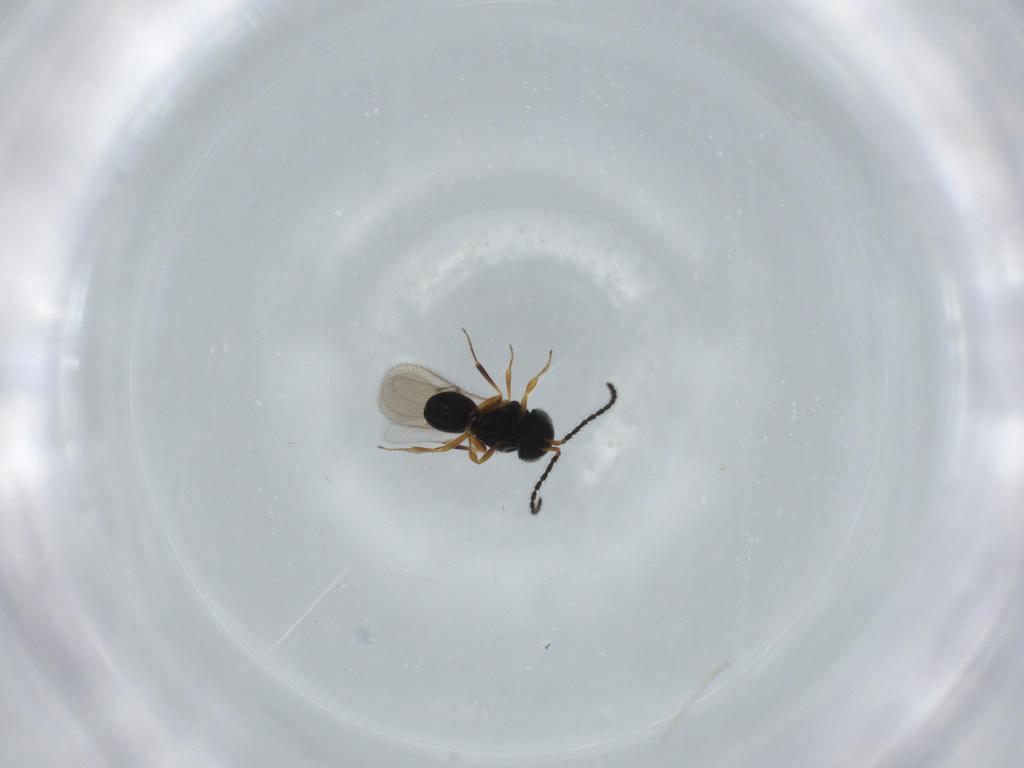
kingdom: Animalia
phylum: Arthropoda
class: Insecta
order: Hymenoptera
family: Scelionidae
